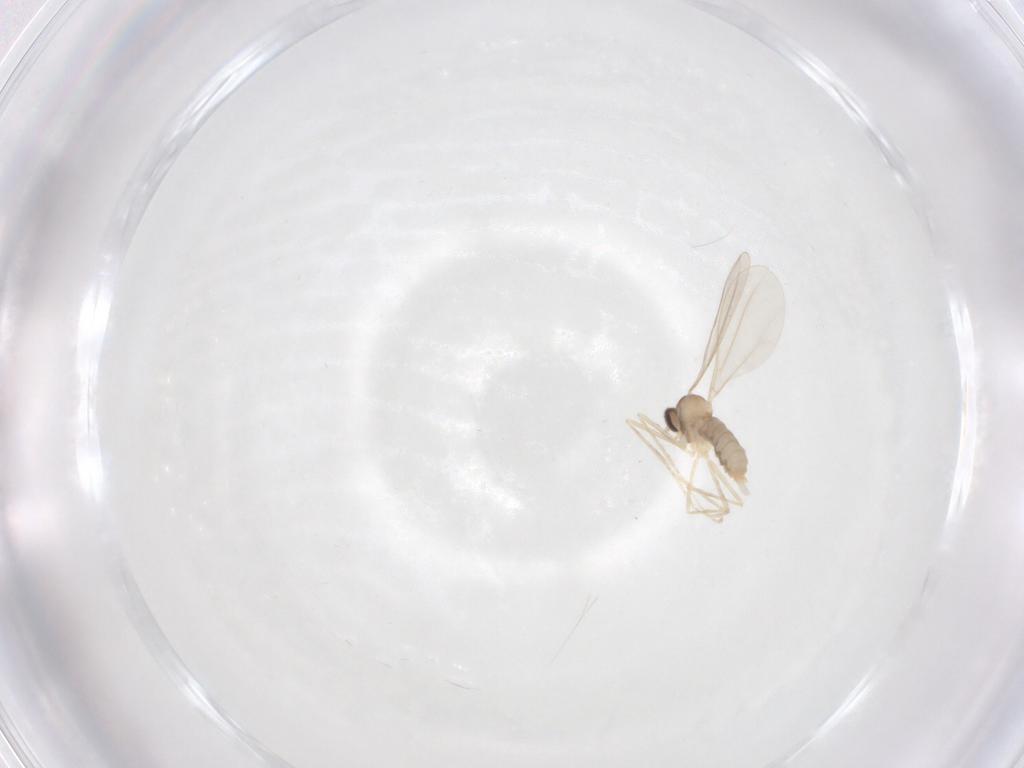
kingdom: Animalia
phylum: Arthropoda
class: Insecta
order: Diptera
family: Cecidomyiidae
